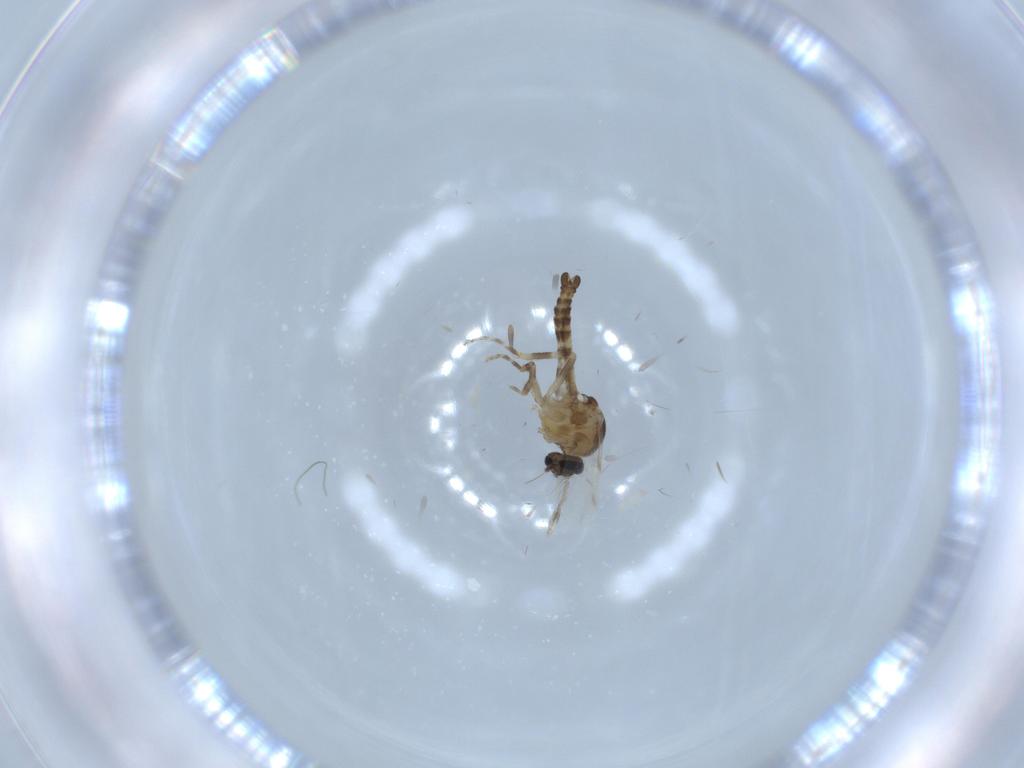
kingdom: Animalia
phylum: Arthropoda
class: Insecta
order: Diptera
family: Ceratopogonidae
